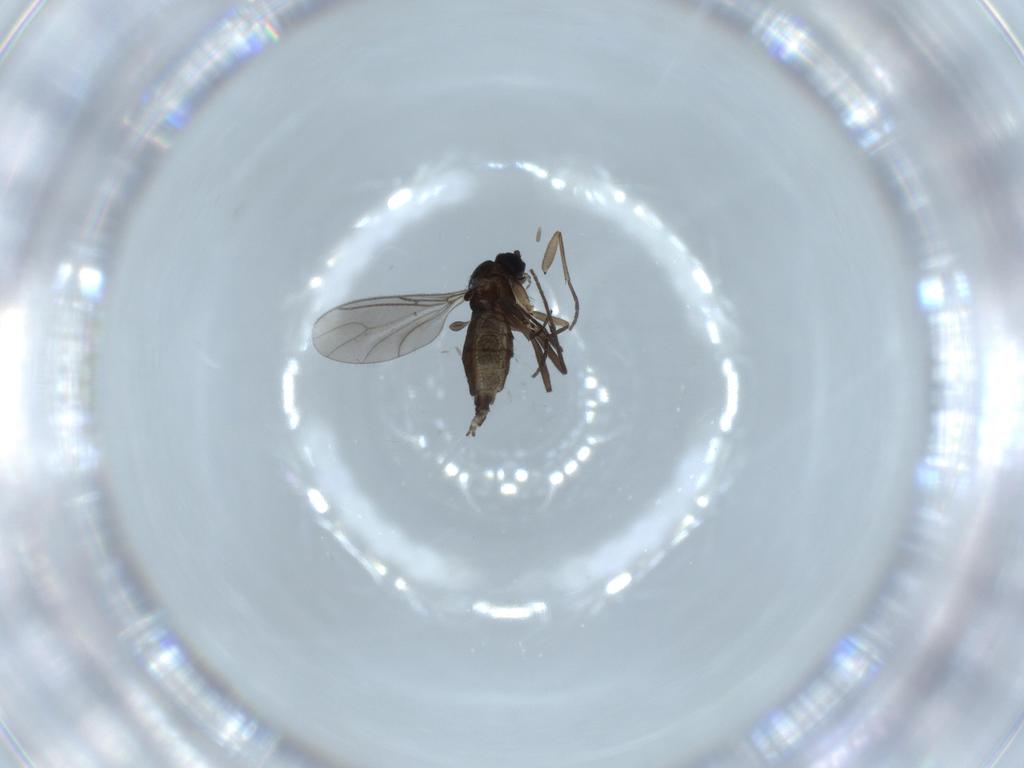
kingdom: Animalia
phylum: Arthropoda
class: Insecta
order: Diptera
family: Sciaridae
